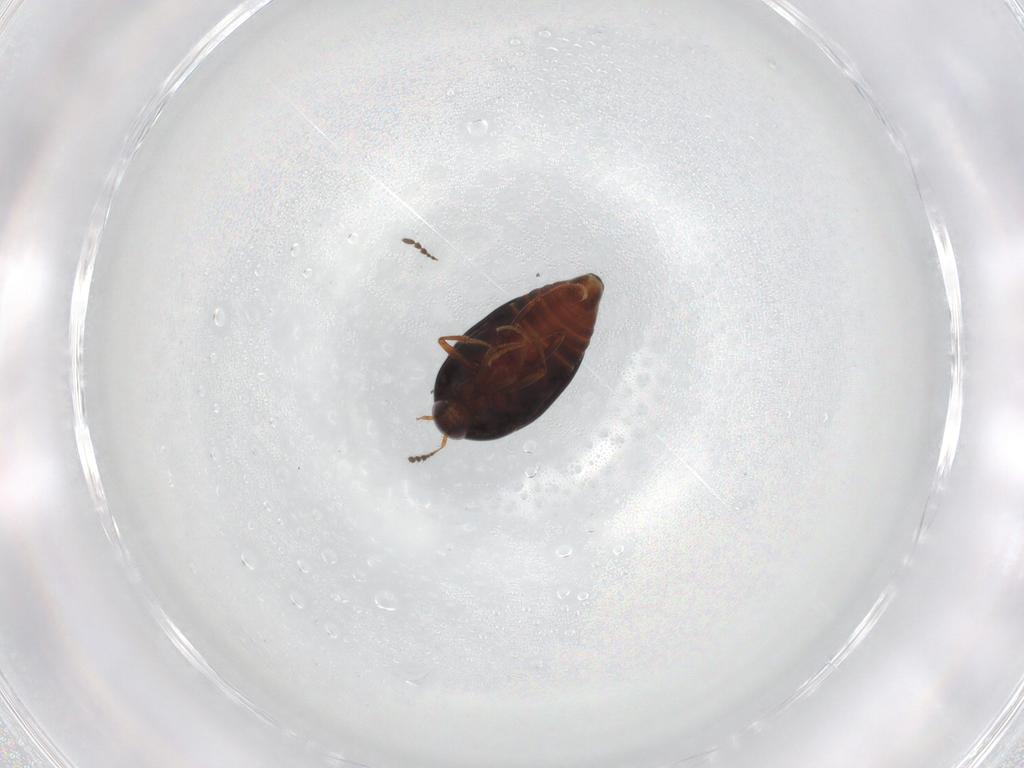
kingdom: Animalia
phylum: Arthropoda
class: Insecta
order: Coleoptera
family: Staphylinidae
